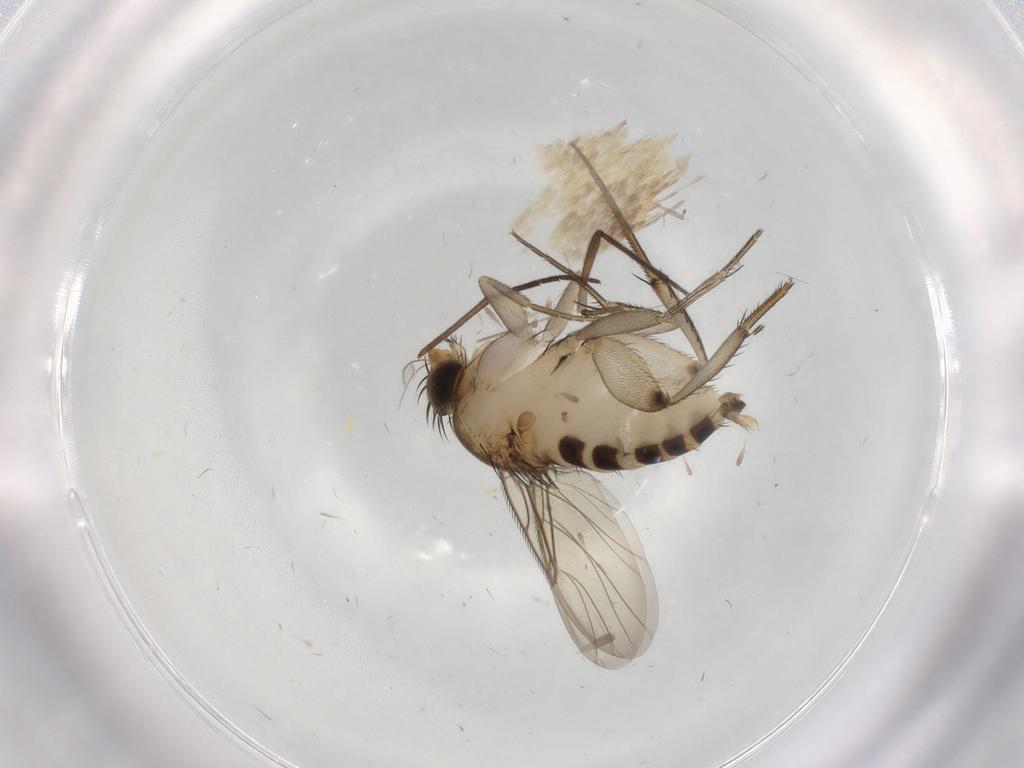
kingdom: Animalia
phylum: Arthropoda
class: Insecta
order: Diptera
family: Phoridae
